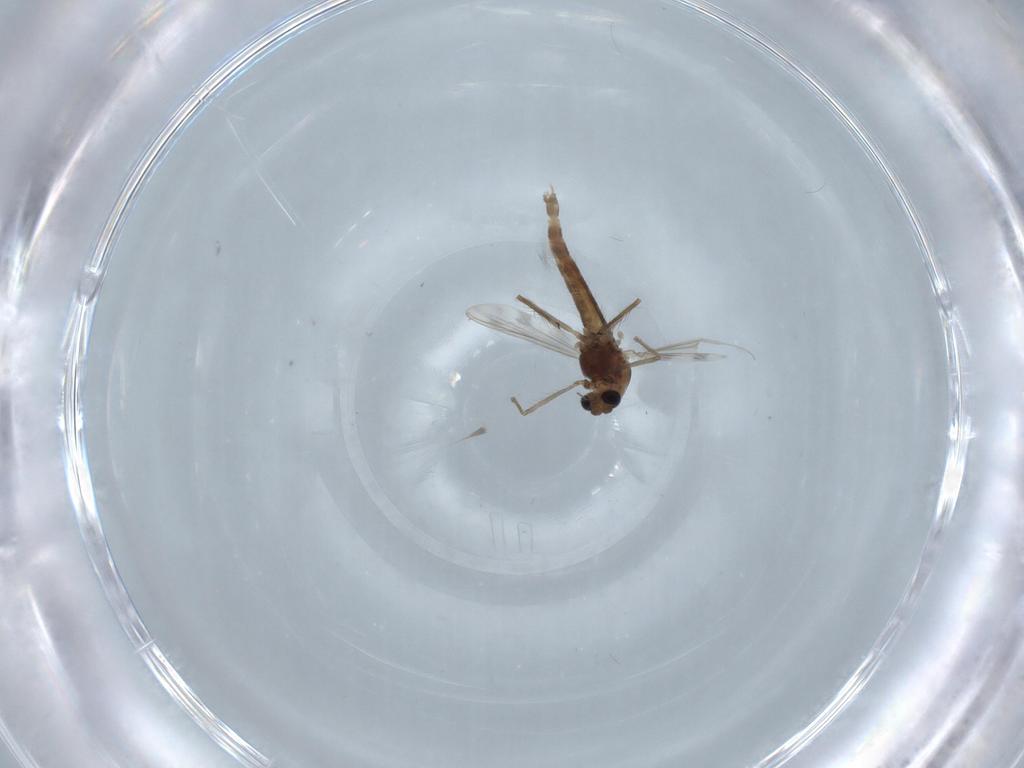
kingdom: Animalia
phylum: Arthropoda
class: Insecta
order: Diptera
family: Chironomidae
